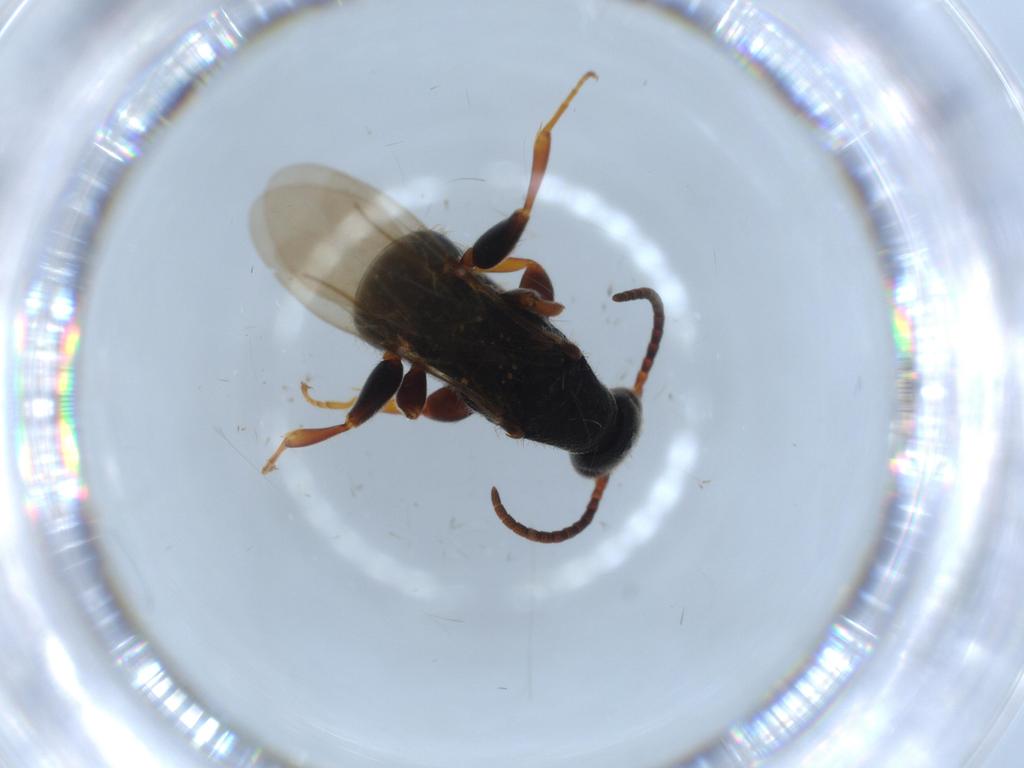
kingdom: Animalia
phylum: Arthropoda
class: Insecta
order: Hymenoptera
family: Bethylidae
